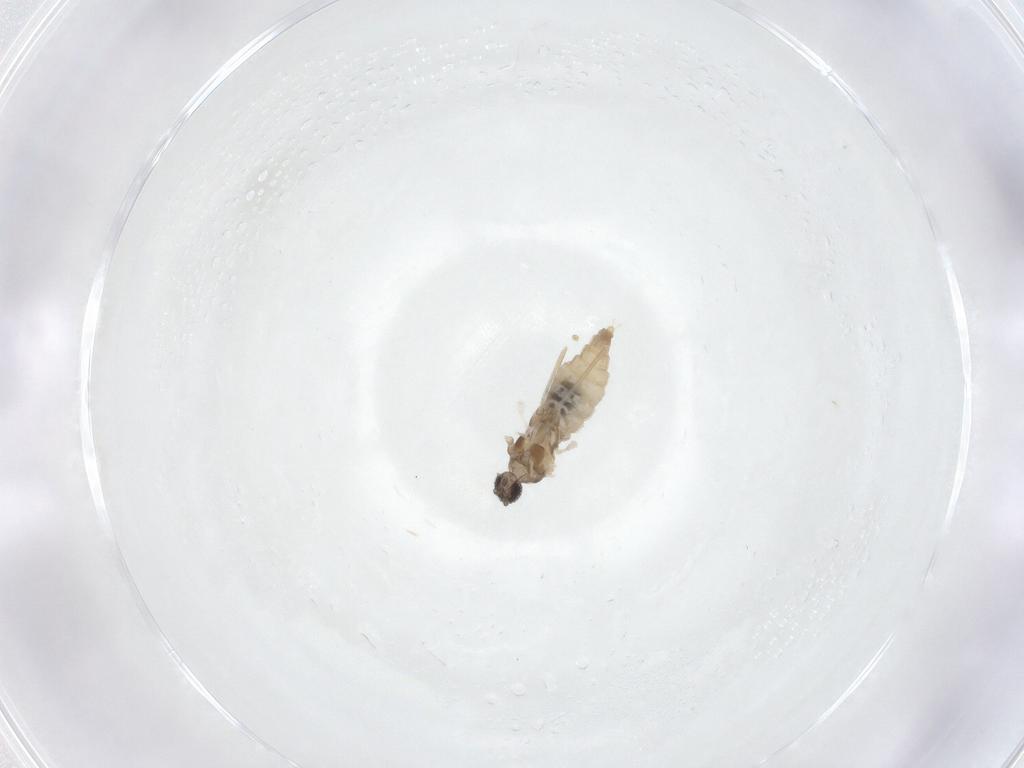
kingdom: Animalia
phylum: Arthropoda
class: Insecta
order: Diptera
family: Cecidomyiidae
